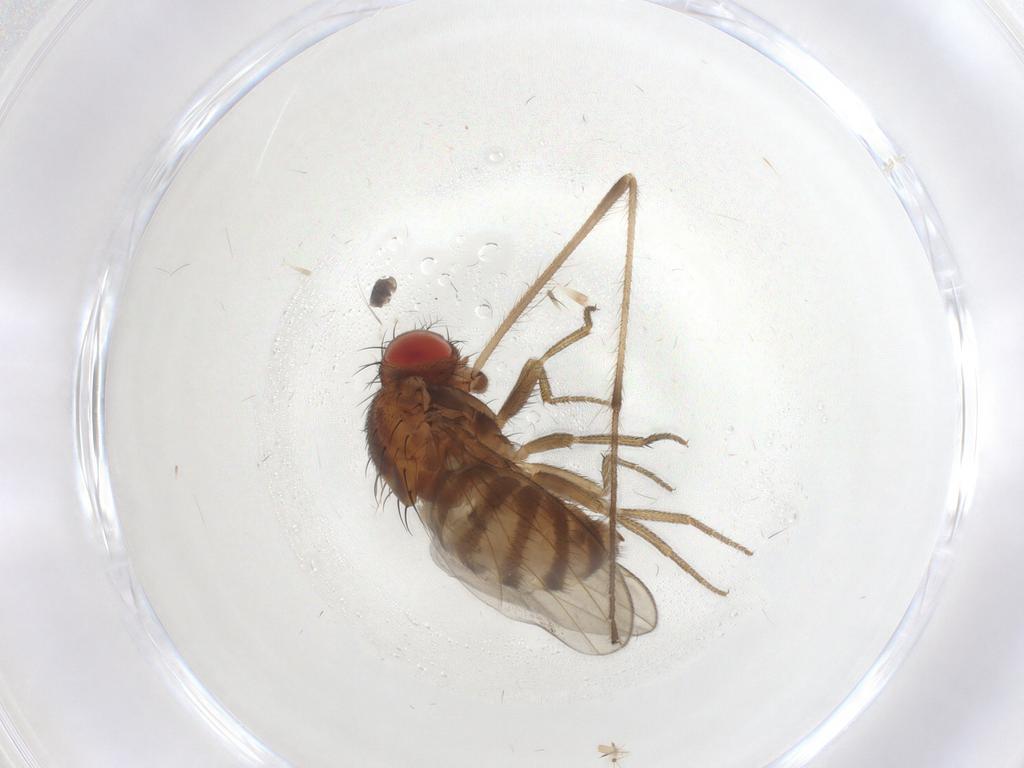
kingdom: Animalia
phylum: Arthropoda
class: Insecta
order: Diptera
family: Drosophilidae
